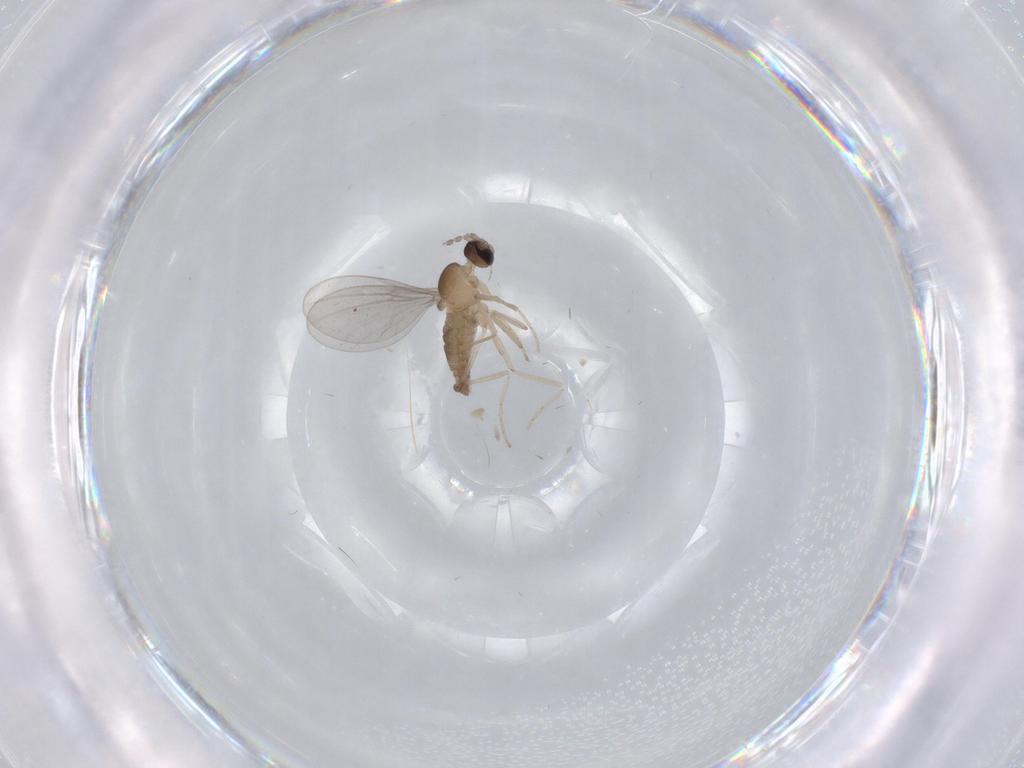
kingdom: Animalia
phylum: Arthropoda
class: Insecta
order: Diptera
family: Cecidomyiidae
